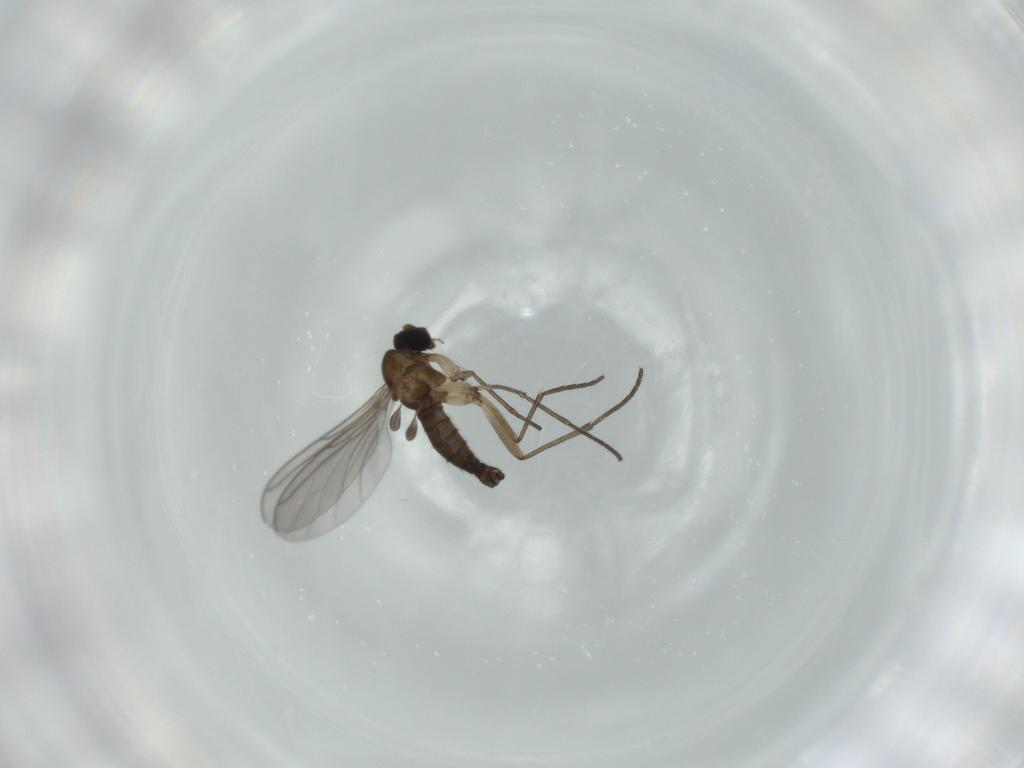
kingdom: Animalia
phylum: Arthropoda
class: Insecta
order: Diptera
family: Sciaridae
